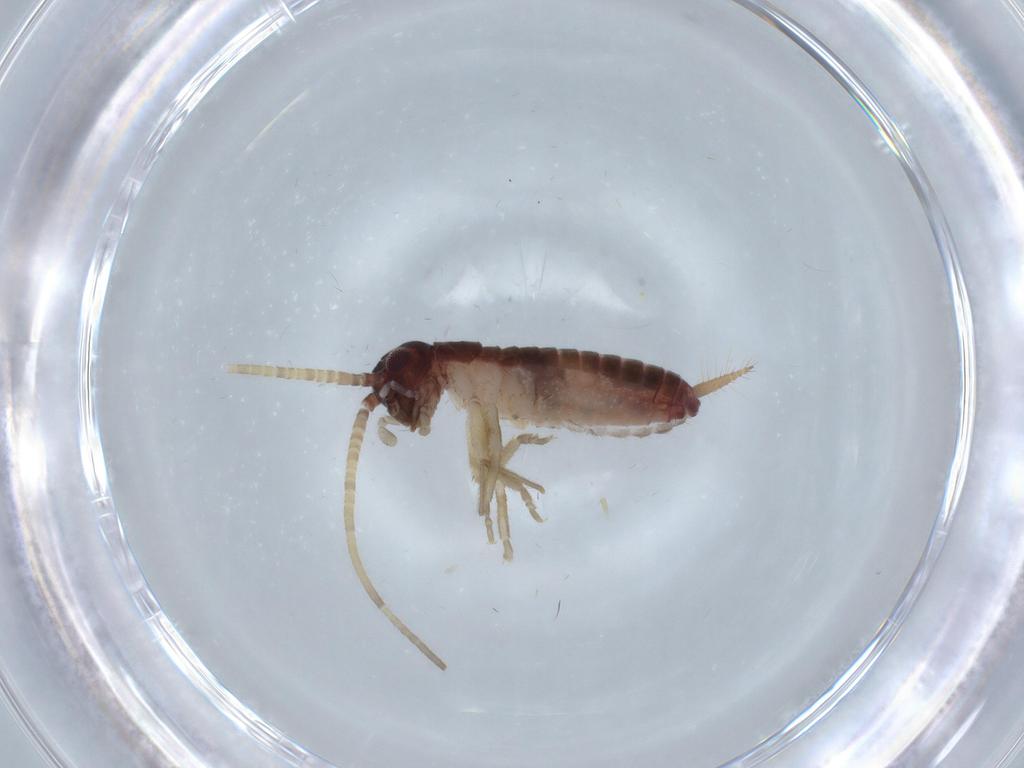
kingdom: Animalia
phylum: Arthropoda
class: Insecta
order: Orthoptera
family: Gryllidae
